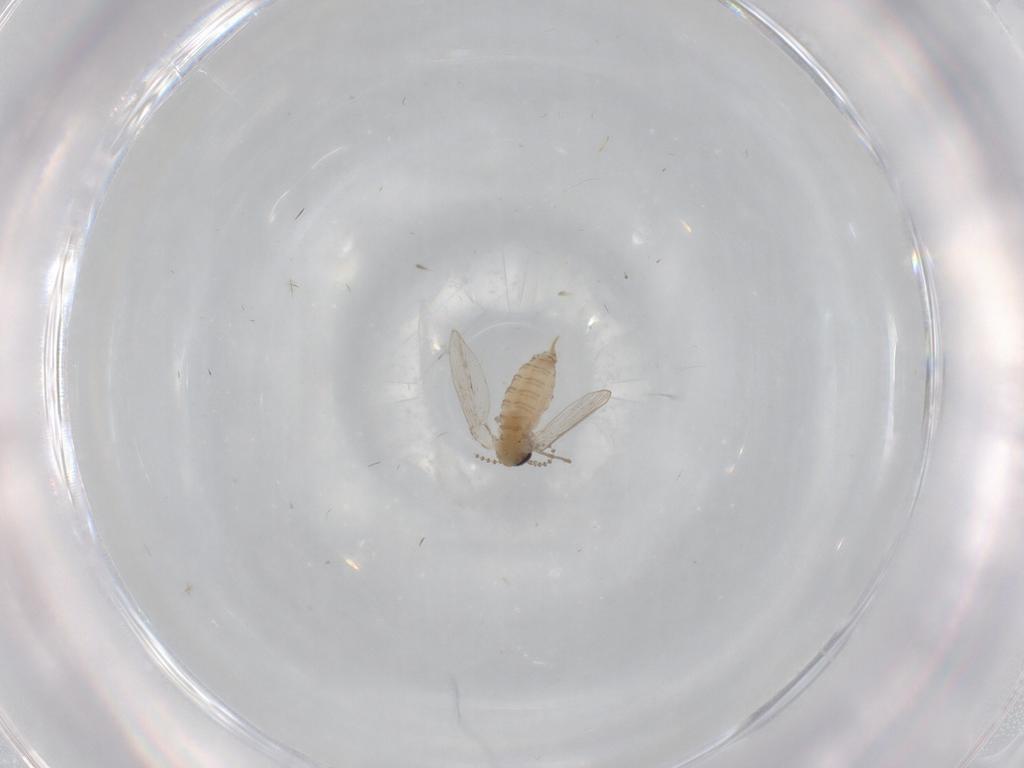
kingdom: Animalia
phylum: Arthropoda
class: Insecta
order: Diptera
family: Psychodidae
